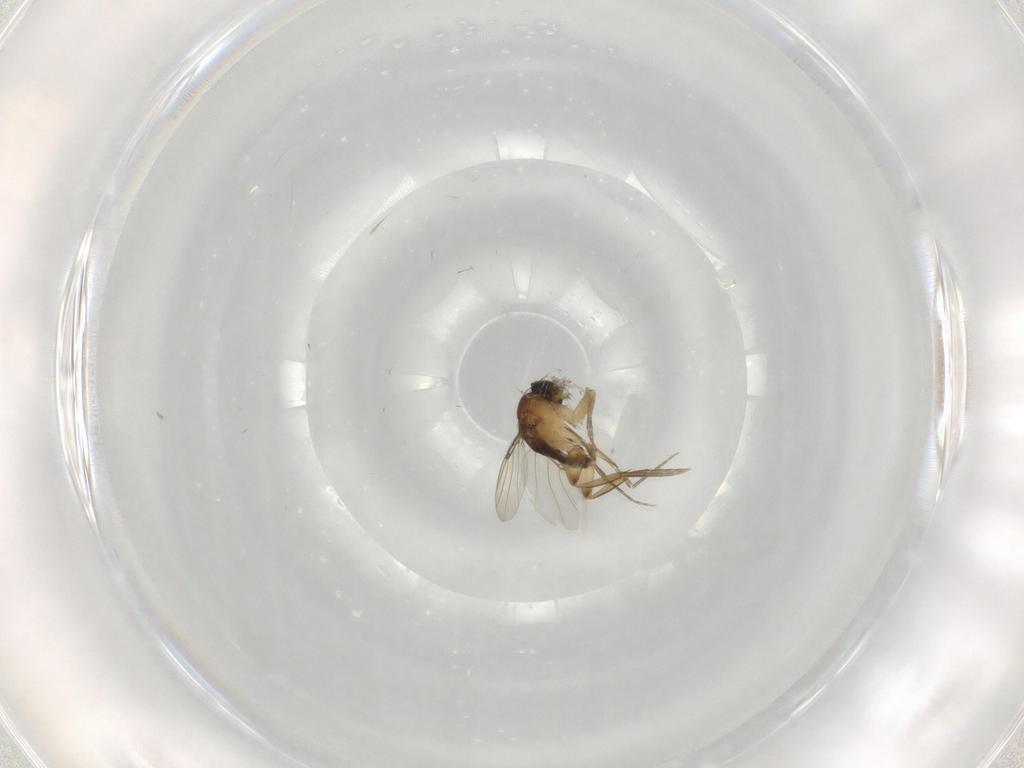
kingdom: Animalia
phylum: Arthropoda
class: Insecta
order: Diptera
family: Phoridae
